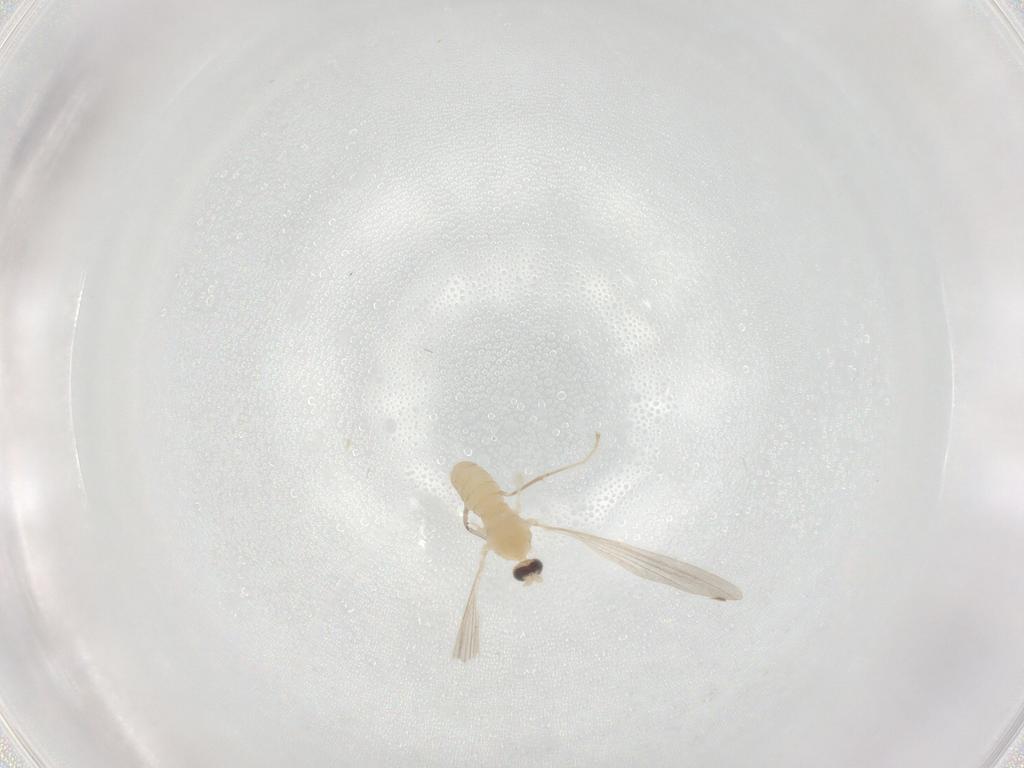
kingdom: Animalia
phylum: Arthropoda
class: Insecta
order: Diptera
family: Cecidomyiidae
